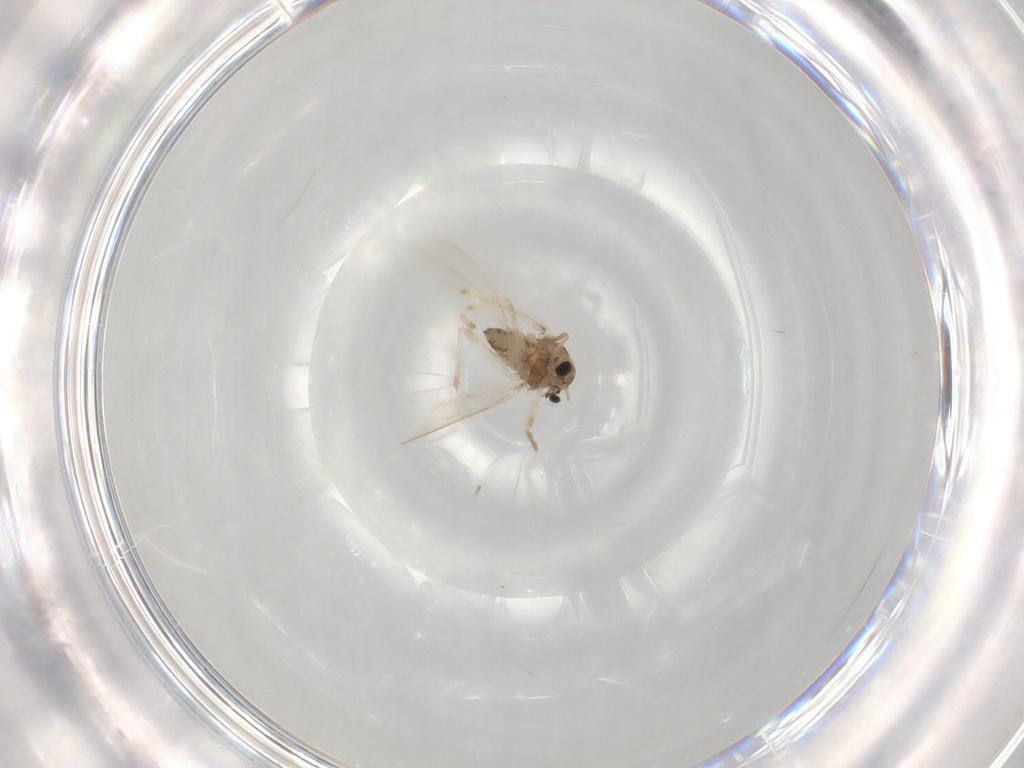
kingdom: Animalia
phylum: Arthropoda
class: Insecta
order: Diptera
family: Chironomidae
